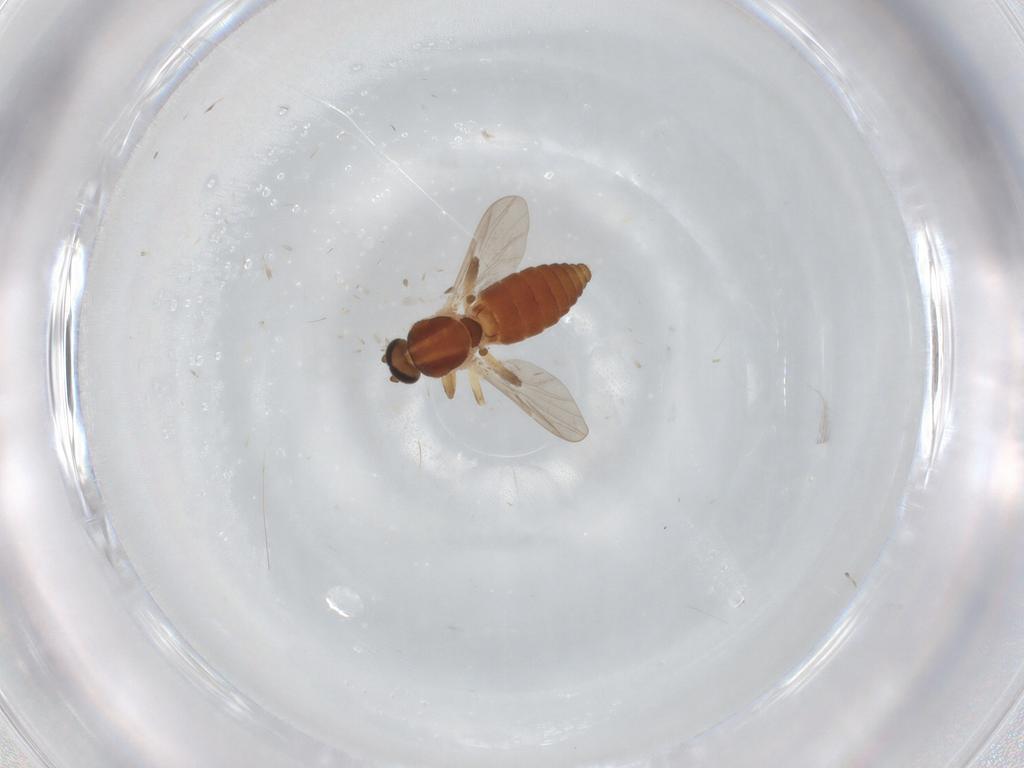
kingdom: Animalia
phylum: Arthropoda
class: Insecta
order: Diptera
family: Ceratopogonidae
